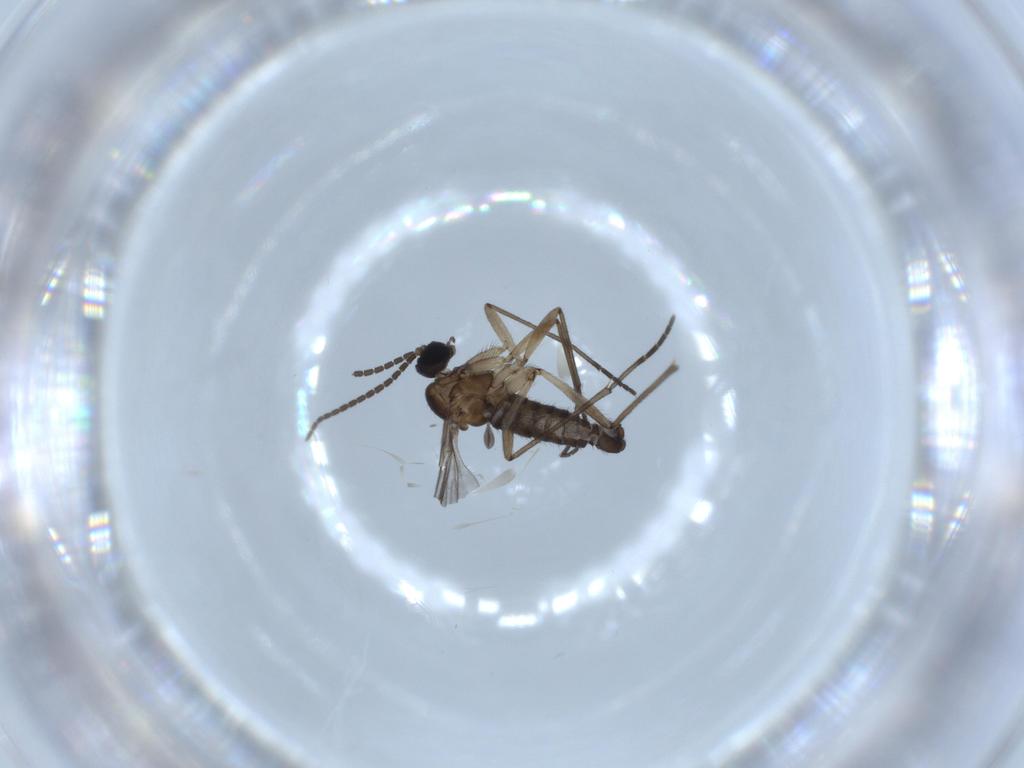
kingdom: Animalia
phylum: Arthropoda
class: Insecta
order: Diptera
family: Sciaridae
